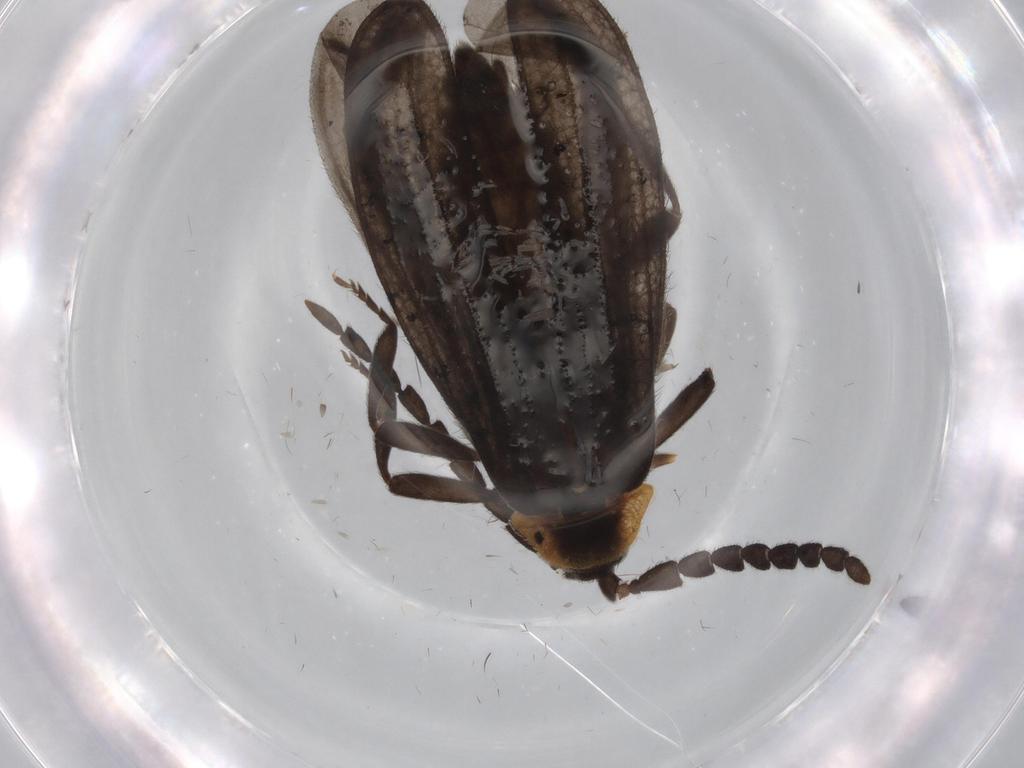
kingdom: Animalia
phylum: Arthropoda
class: Insecta
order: Coleoptera
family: Lycidae
